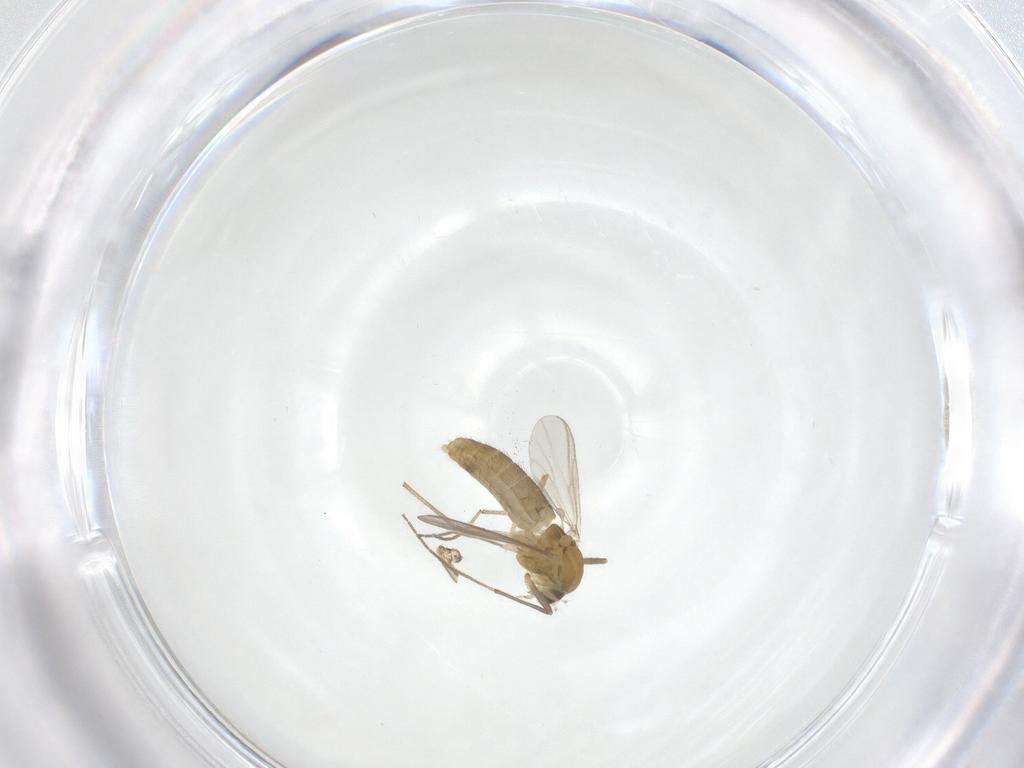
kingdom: Animalia
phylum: Arthropoda
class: Insecta
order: Diptera
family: Chironomidae
